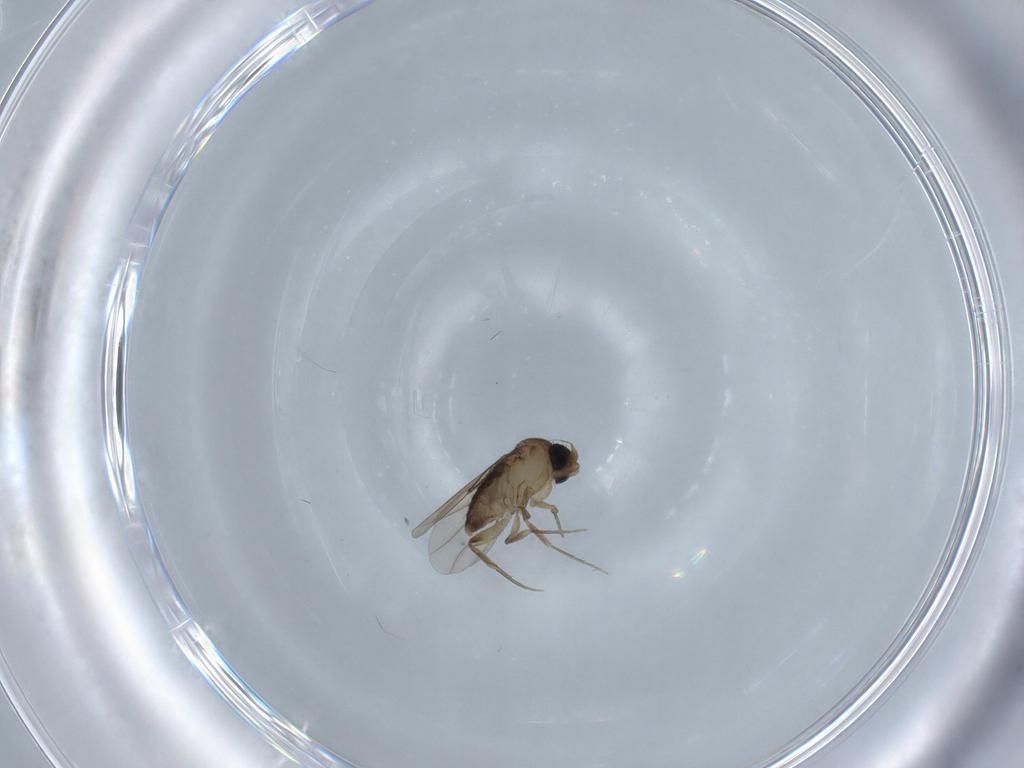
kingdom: Animalia
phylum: Arthropoda
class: Insecta
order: Diptera
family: Phoridae
